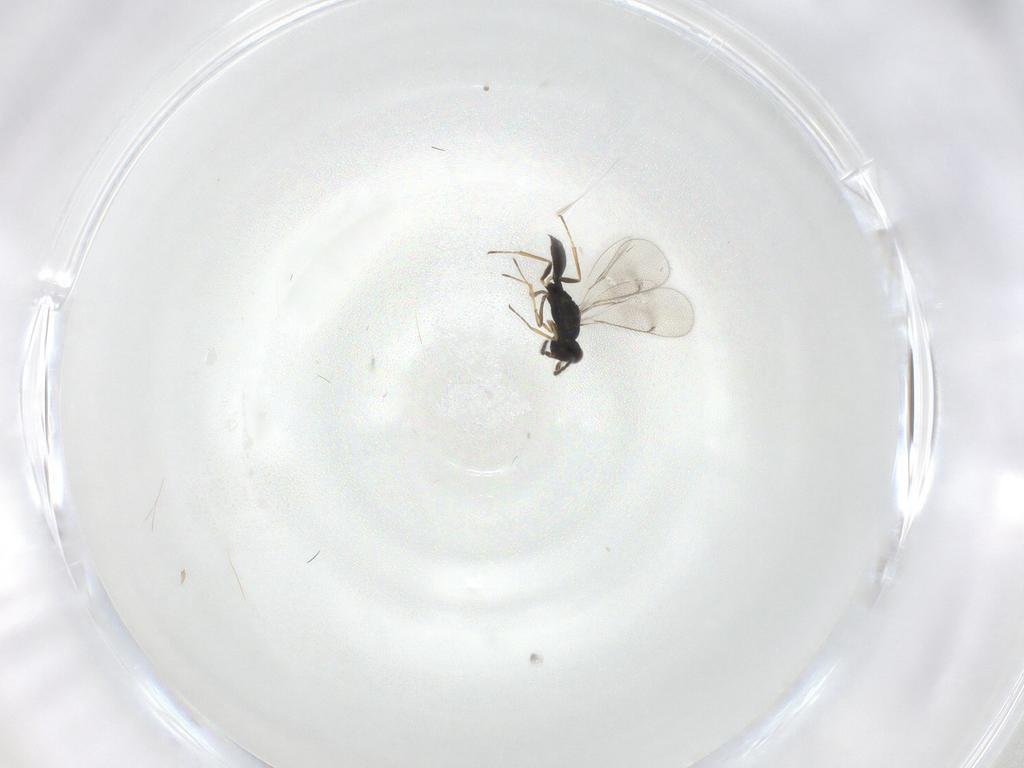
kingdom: Animalia
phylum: Arthropoda
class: Insecta
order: Hymenoptera
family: Eulophidae
